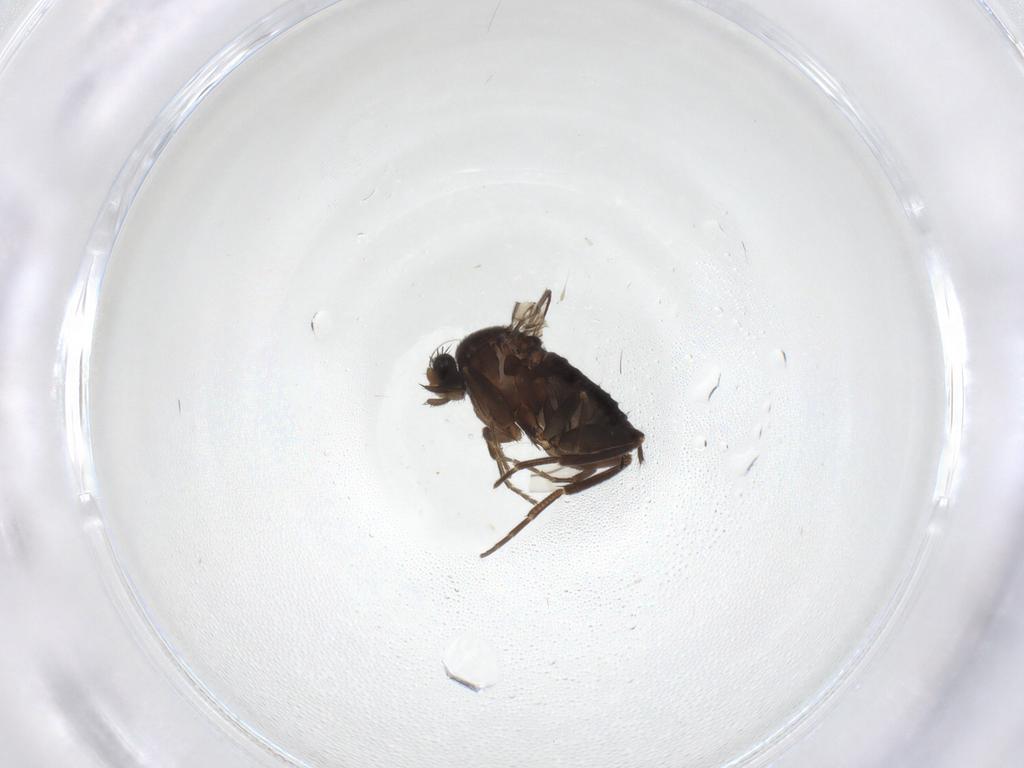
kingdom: Animalia
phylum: Arthropoda
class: Insecta
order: Diptera
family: Phoridae
